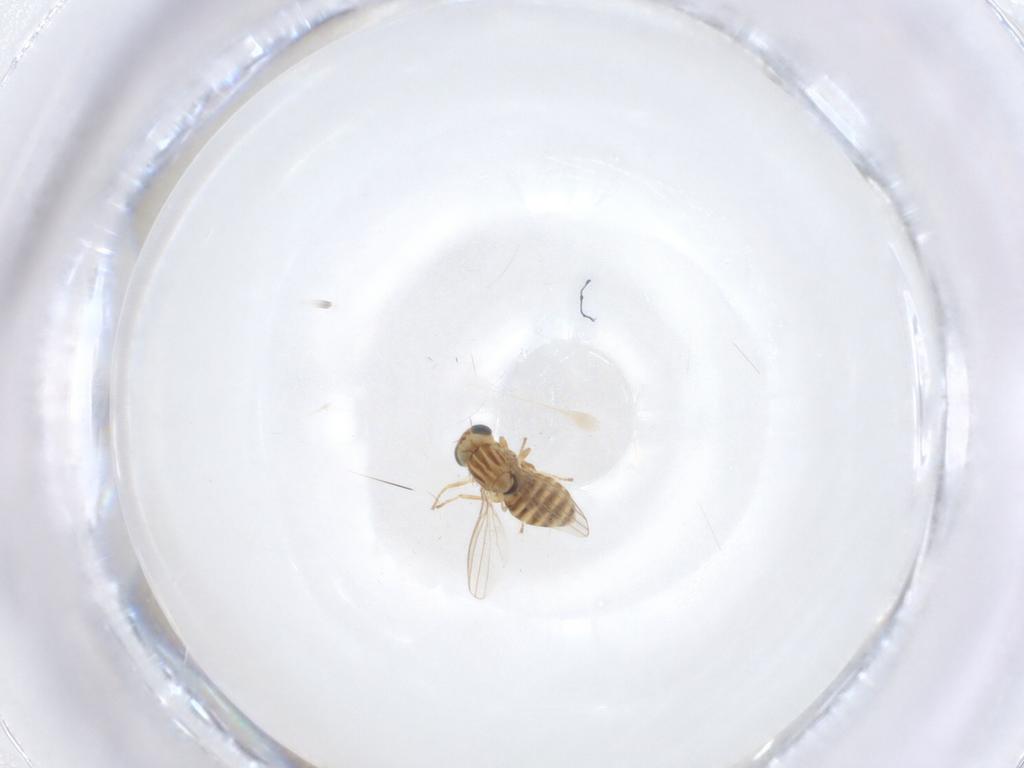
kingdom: Animalia
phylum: Arthropoda
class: Insecta
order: Diptera
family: Chyromyidae
